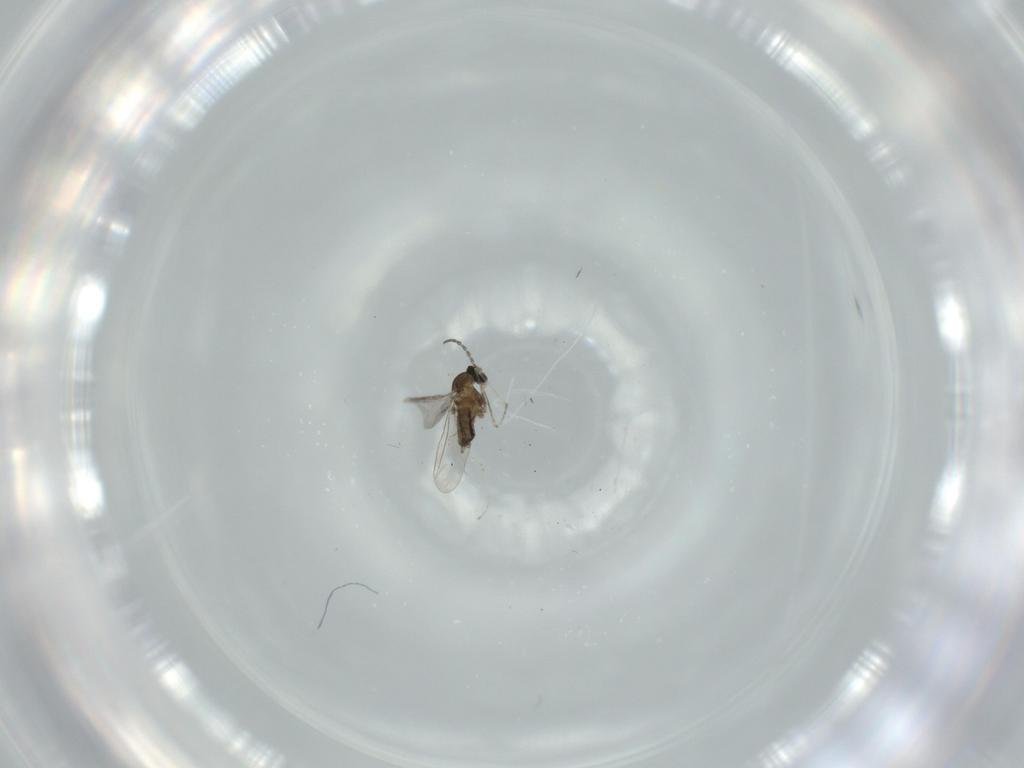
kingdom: Animalia
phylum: Arthropoda
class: Insecta
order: Diptera
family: Cecidomyiidae
